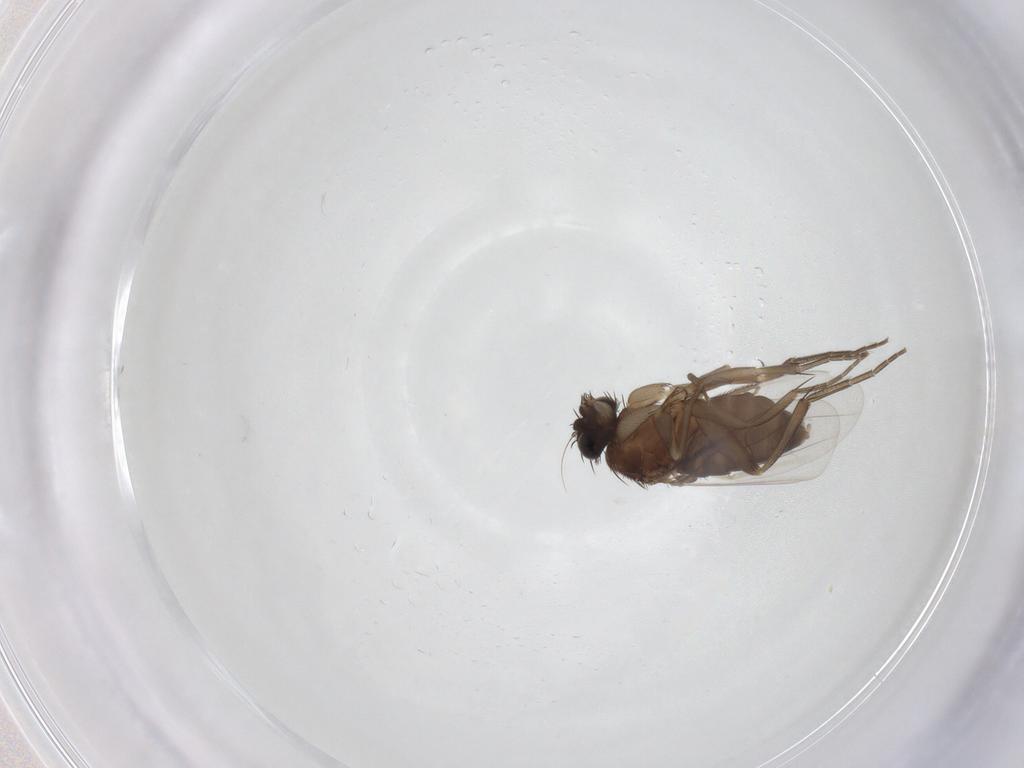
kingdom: Animalia
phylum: Arthropoda
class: Insecta
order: Diptera
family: Phoridae
